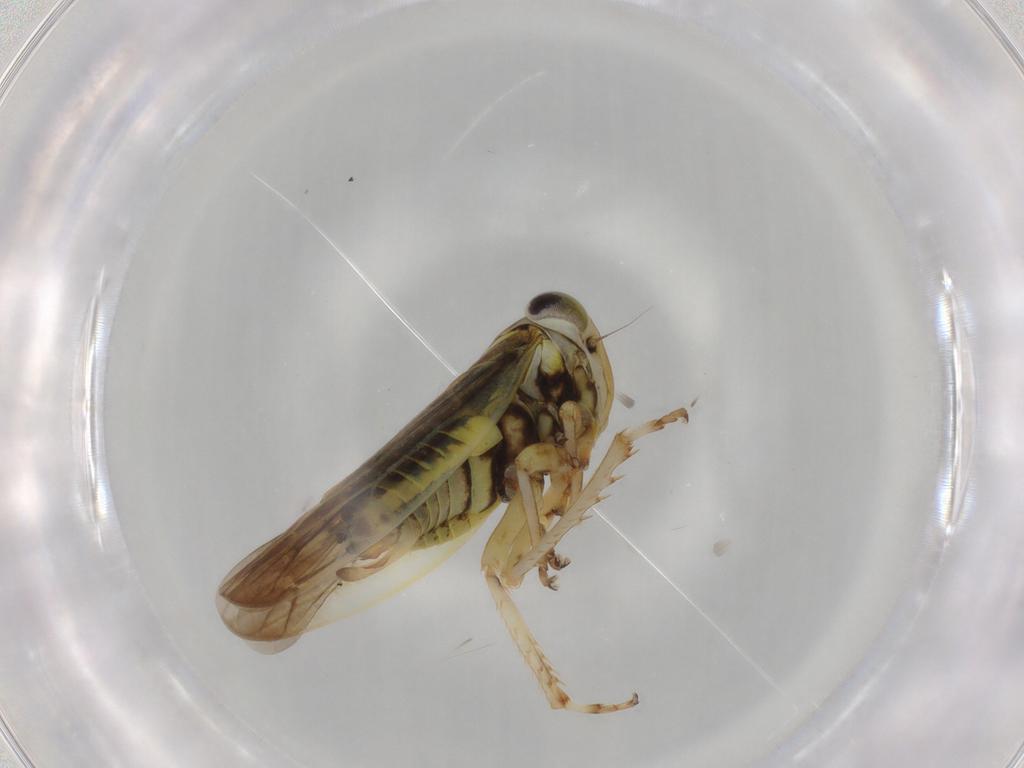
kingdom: Animalia
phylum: Arthropoda
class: Insecta
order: Hemiptera
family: Cicadellidae
